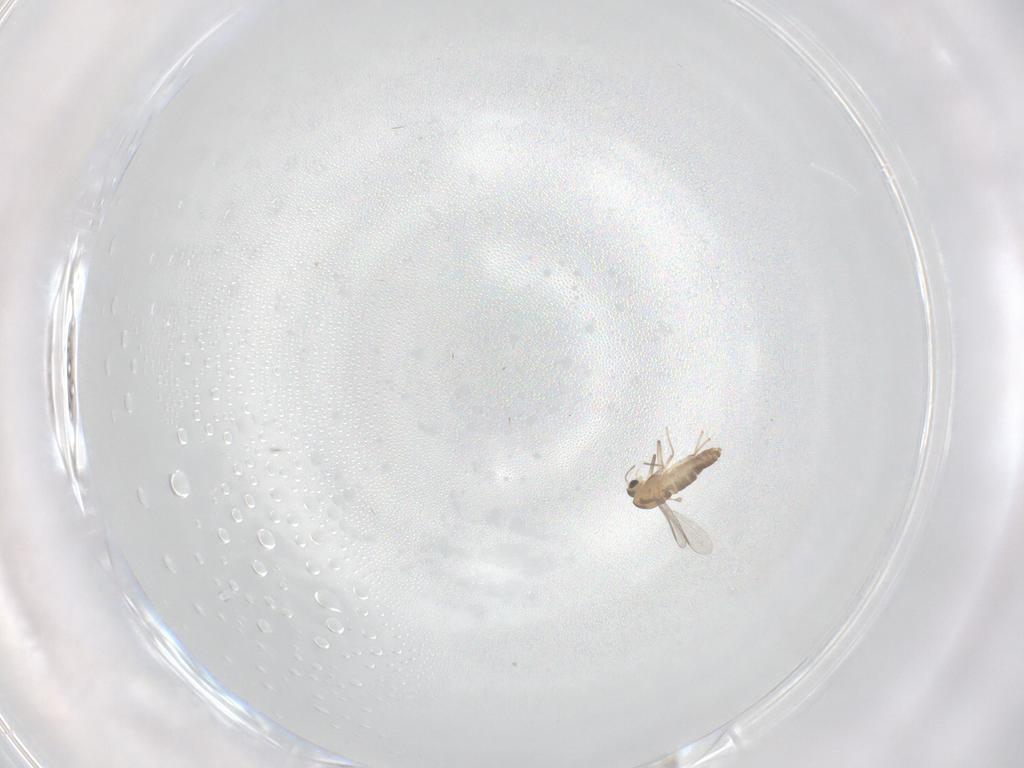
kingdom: Animalia
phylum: Arthropoda
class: Insecta
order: Diptera
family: Chironomidae
